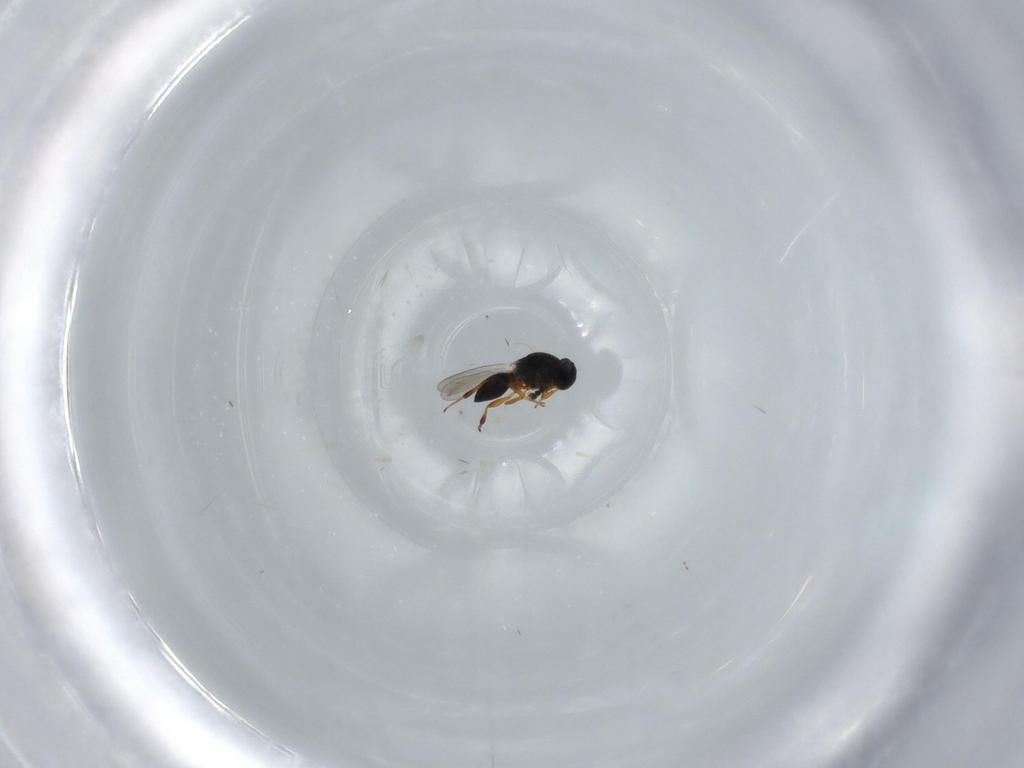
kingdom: Animalia
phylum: Arthropoda
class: Insecta
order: Hymenoptera
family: Platygastridae
